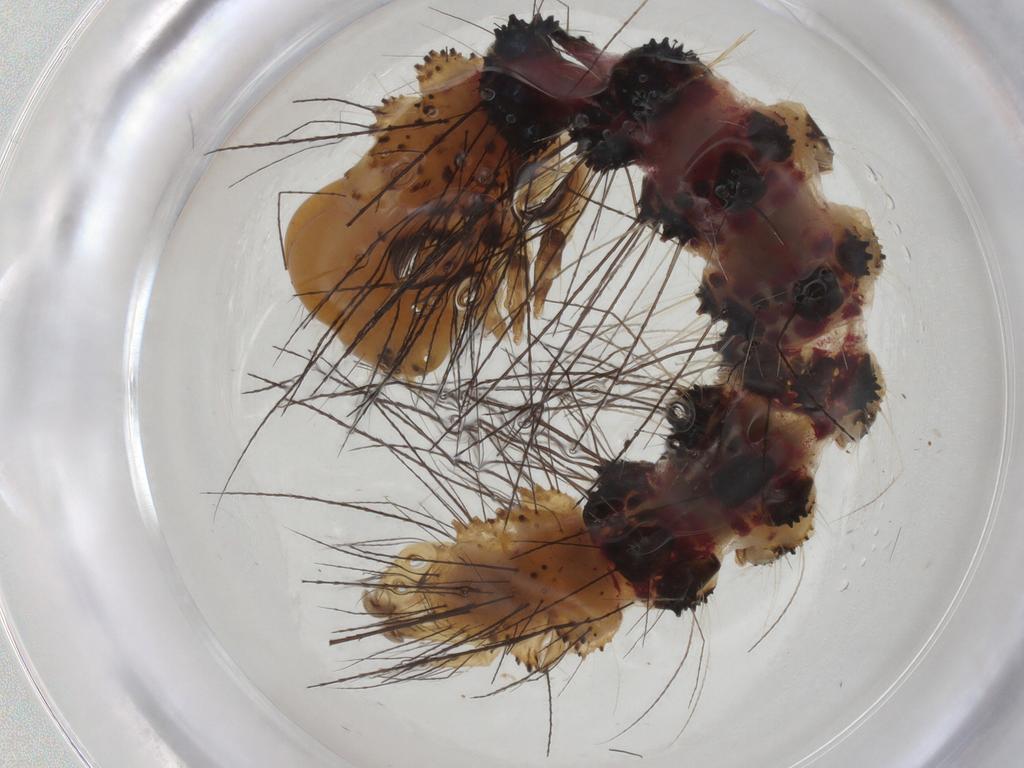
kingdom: Animalia
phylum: Arthropoda
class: Insecta
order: Lepidoptera
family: Erebidae
